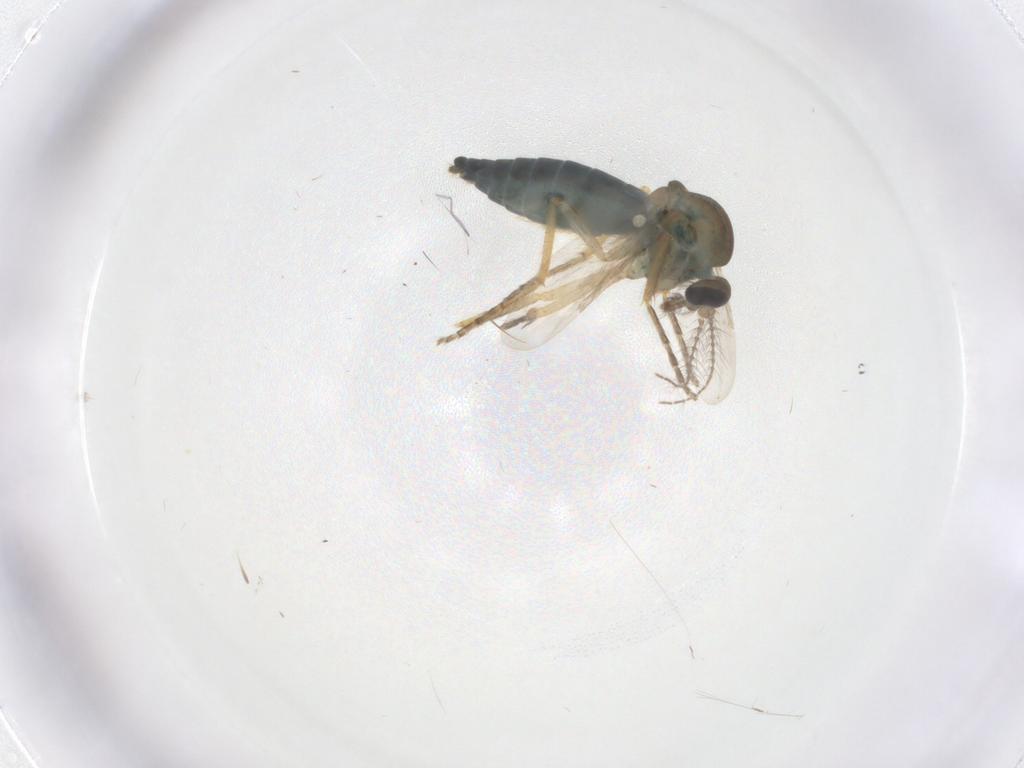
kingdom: Animalia
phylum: Arthropoda
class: Insecta
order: Diptera
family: Ceratopogonidae
